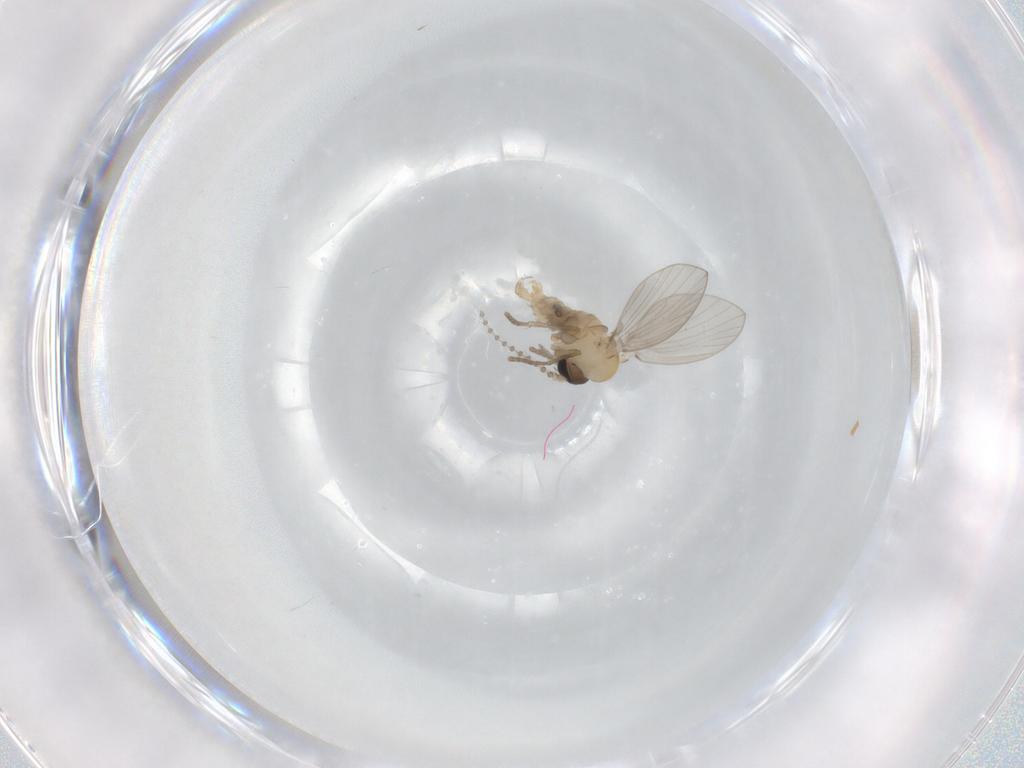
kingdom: Animalia
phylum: Arthropoda
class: Insecta
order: Diptera
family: Psychodidae
